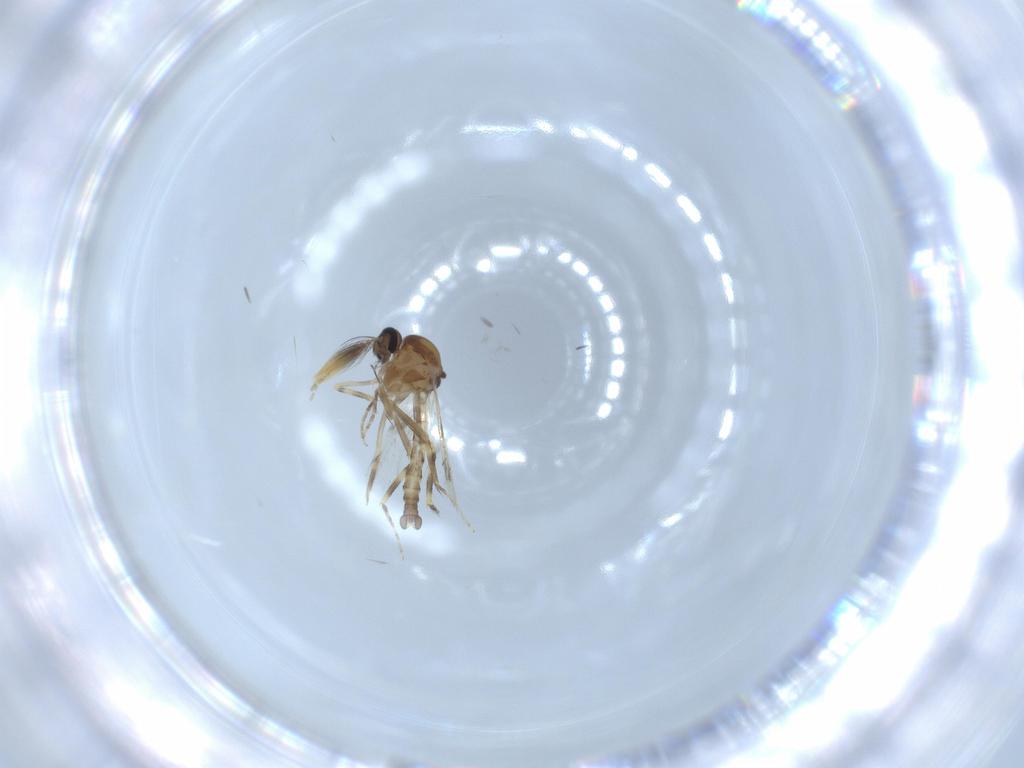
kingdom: Animalia
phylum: Arthropoda
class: Insecta
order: Diptera
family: Ceratopogonidae
